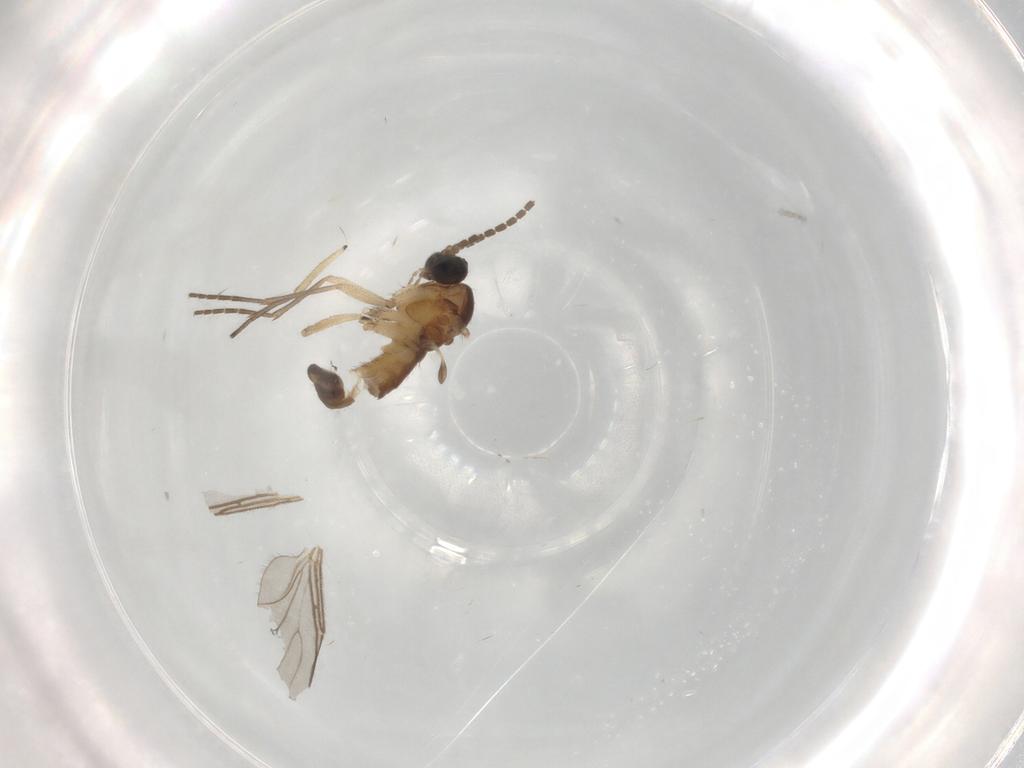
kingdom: Animalia
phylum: Arthropoda
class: Insecta
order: Diptera
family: Sciaridae
